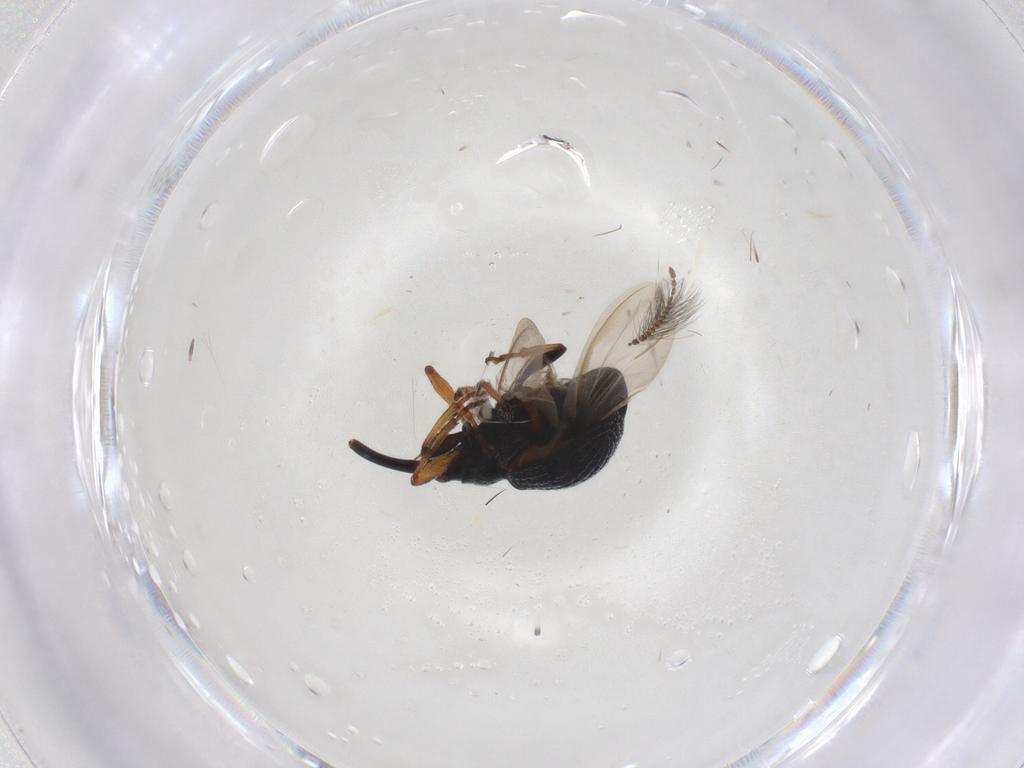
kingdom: Animalia
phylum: Arthropoda
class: Insecta
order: Coleoptera
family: Brentidae
